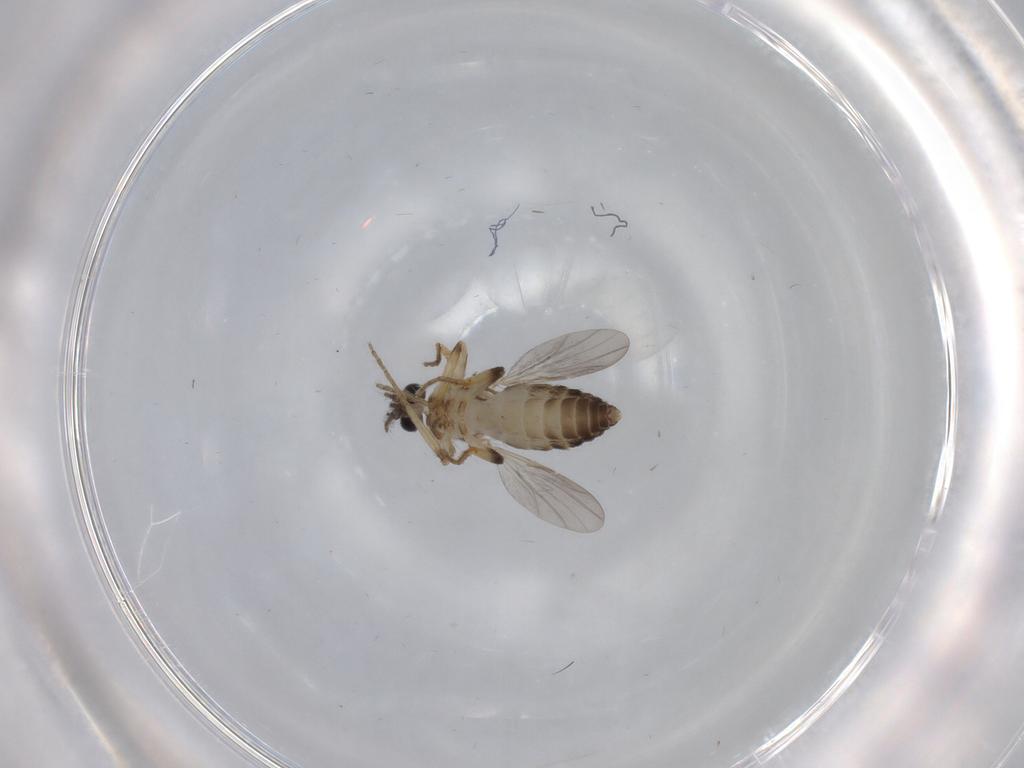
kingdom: Animalia
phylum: Arthropoda
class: Insecta
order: Diptera
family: Ceratopogonidae
